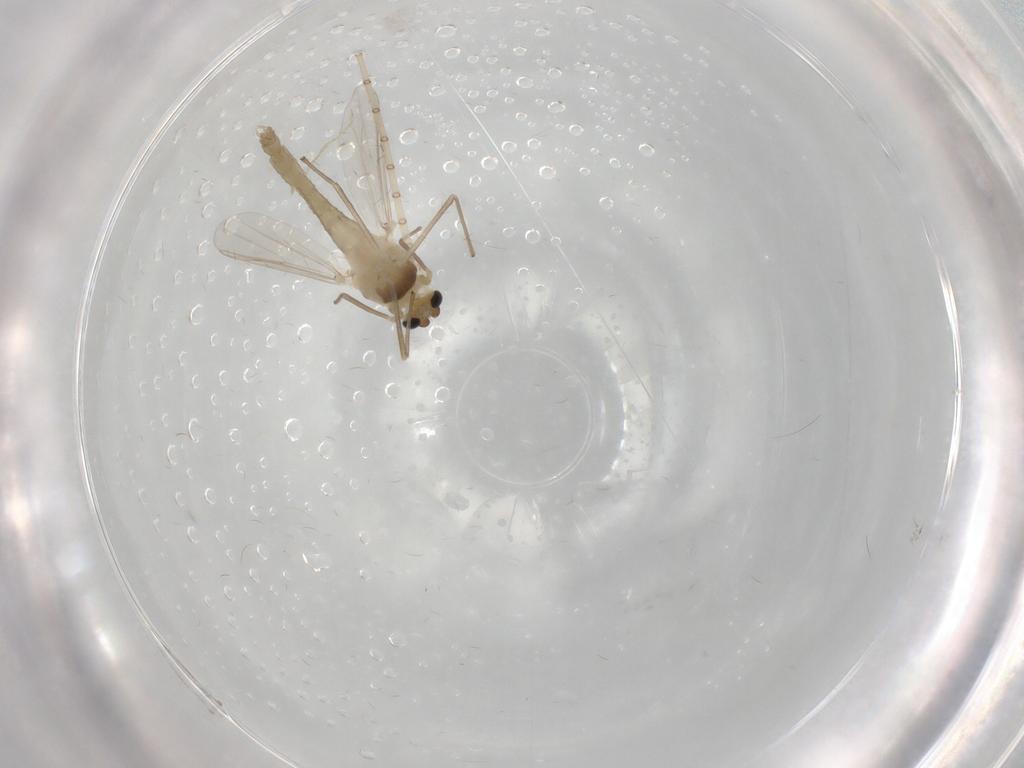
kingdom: Animalia
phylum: Arthropoda
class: Insecta
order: Diptera
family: Chironomidae
